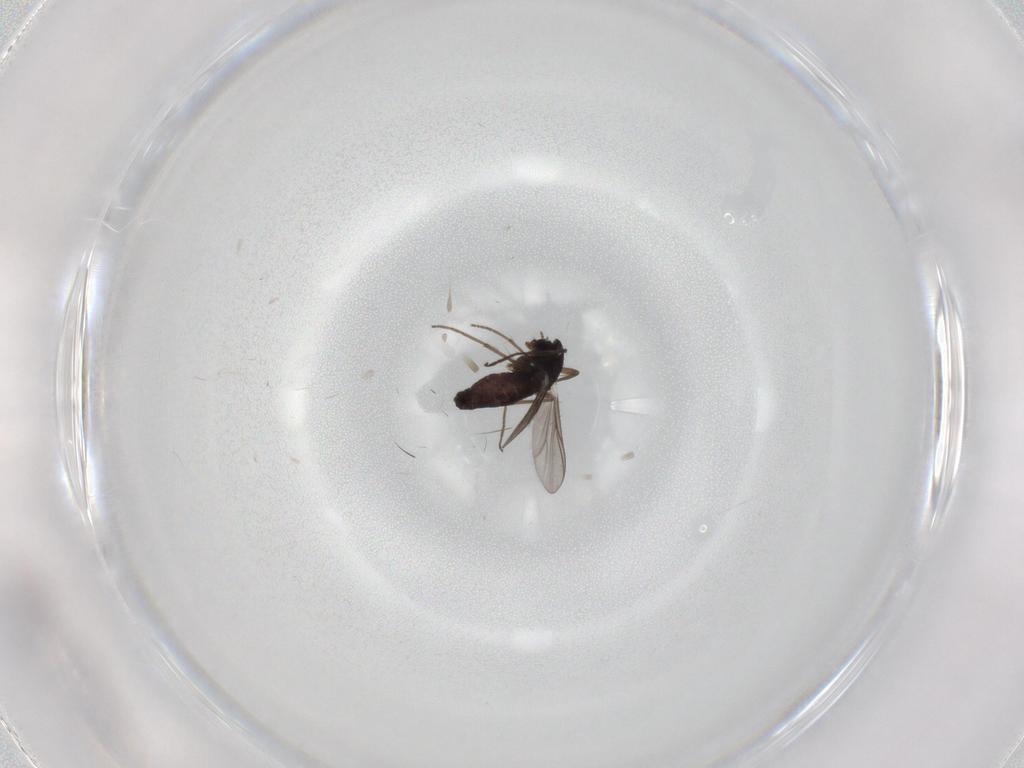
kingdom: Animalia
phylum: Arthropoda
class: Insecta
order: Diptera
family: Chironomidae
